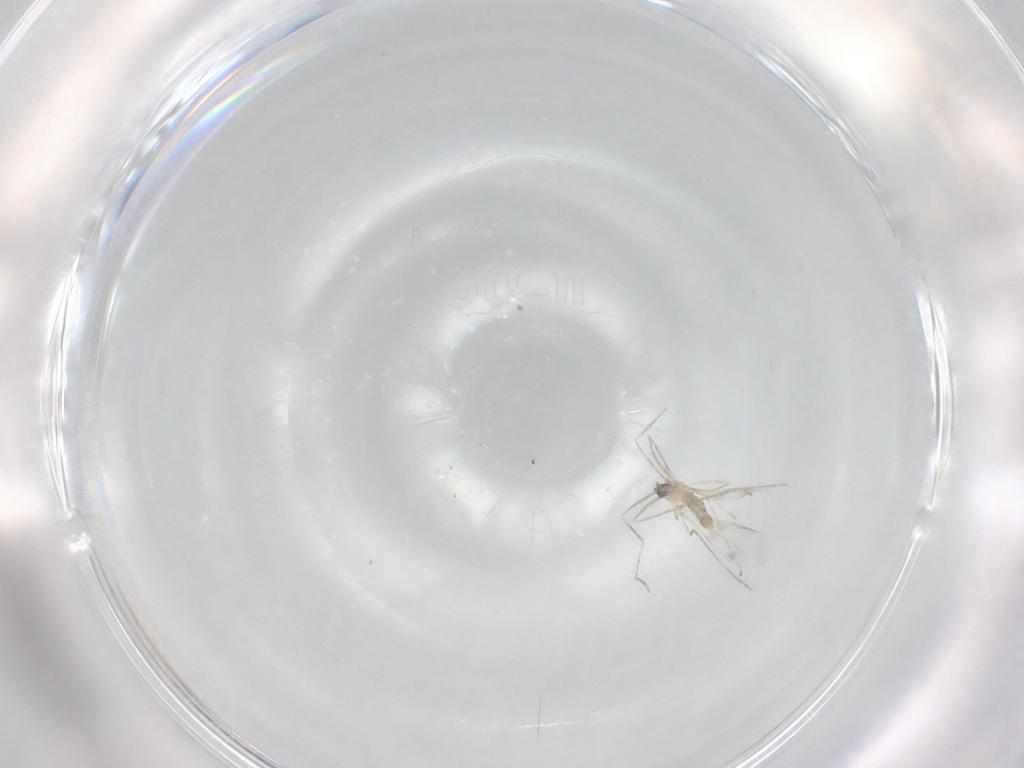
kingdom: Animalia
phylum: Arthropoda
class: Insecta
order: Diptera
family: Cecidomyiidae
